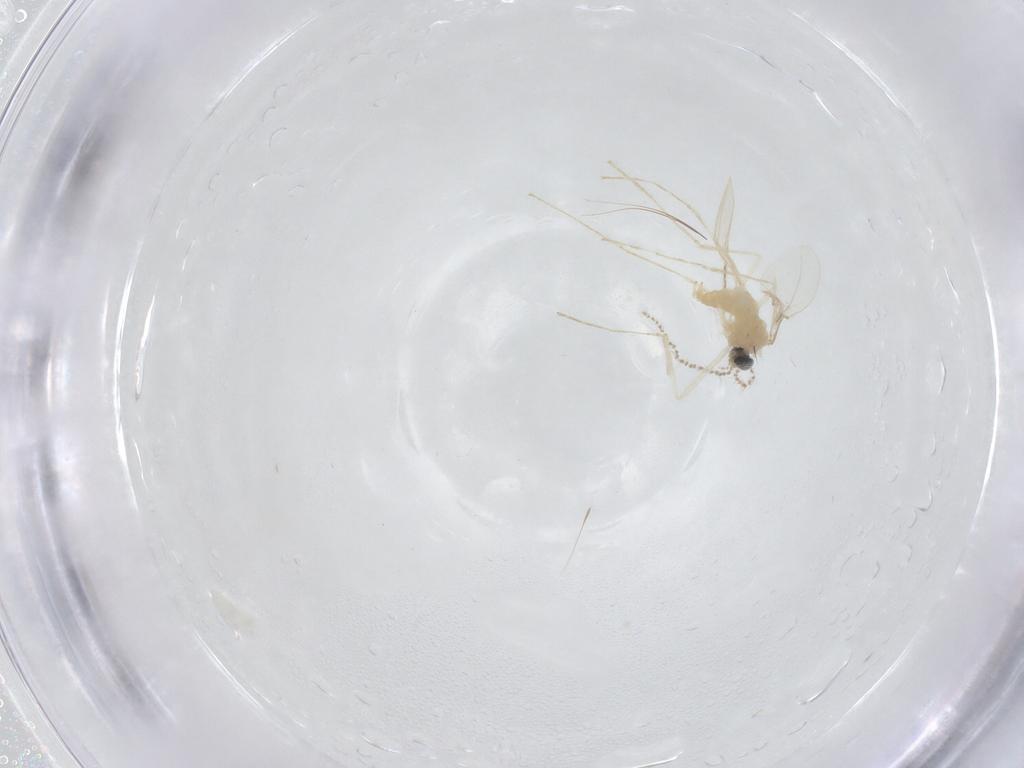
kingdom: Animalia
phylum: Arthropoda
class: Insecta
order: Diptera
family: Cecidomyiidae
